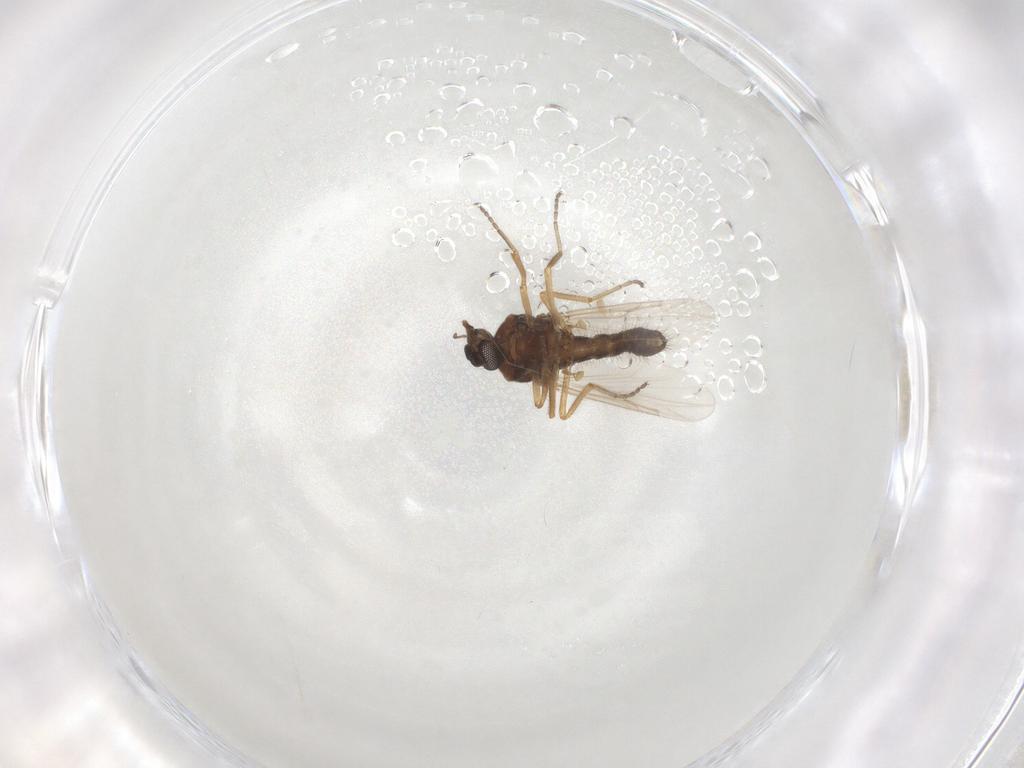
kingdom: Animalia
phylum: Arthropoda
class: Insecta
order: Diptera
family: Ceratopogonidae
